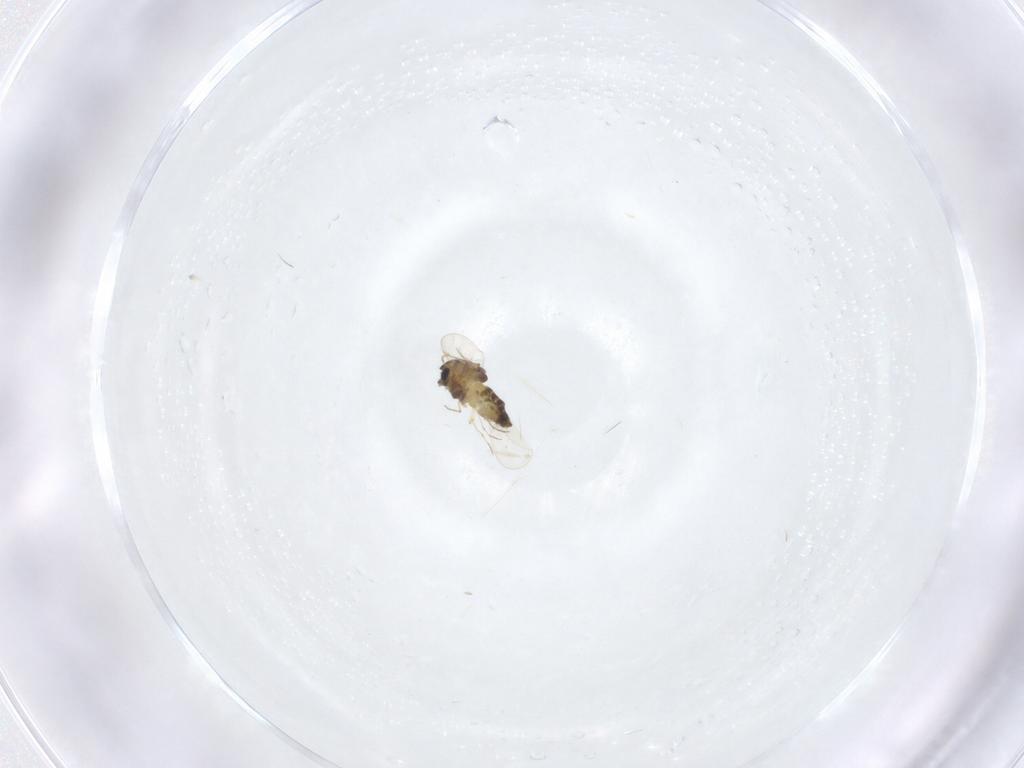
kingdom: Animalia
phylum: Arthropoda
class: Insecta
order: Diptera
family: Chironomidae
